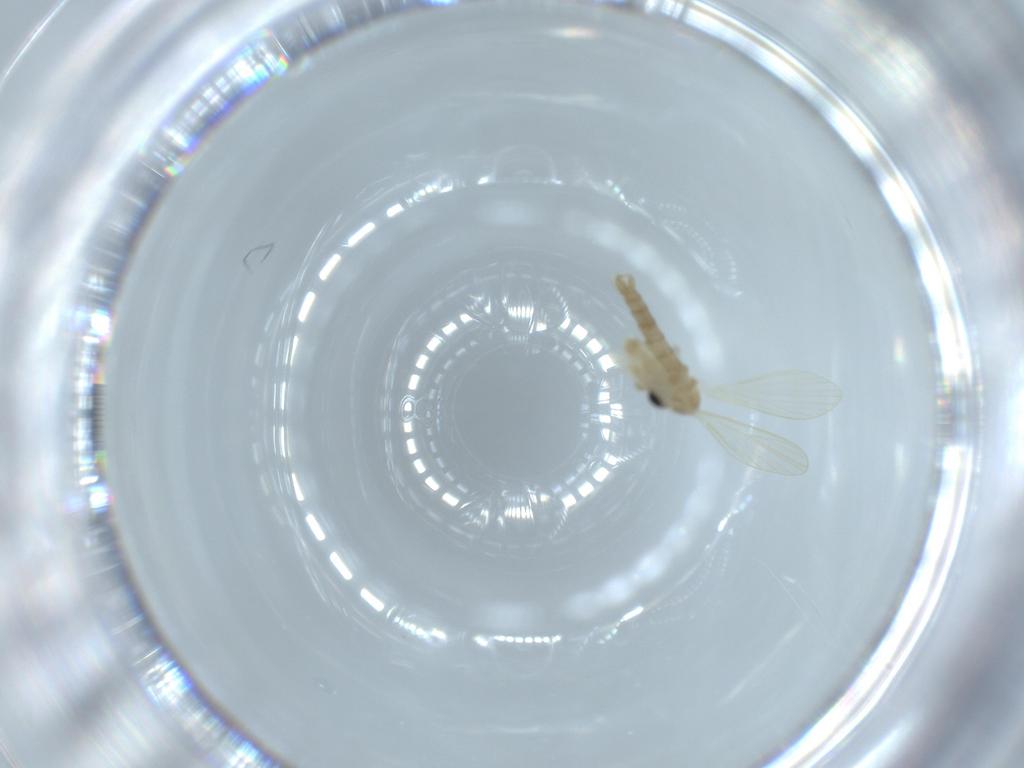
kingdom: Animalia
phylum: Arthropoda
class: Insecta
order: Diptera
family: Psychodidae
